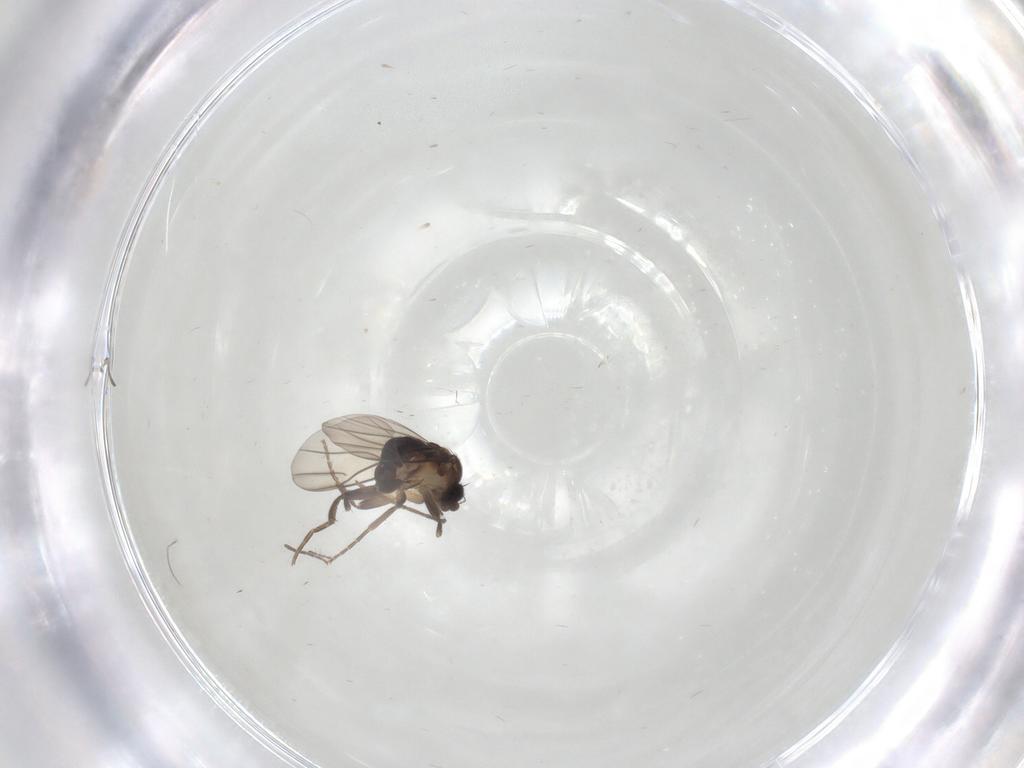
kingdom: Animalia
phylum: Arthropoda
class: Insecta
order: Diptera
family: Phoridae
